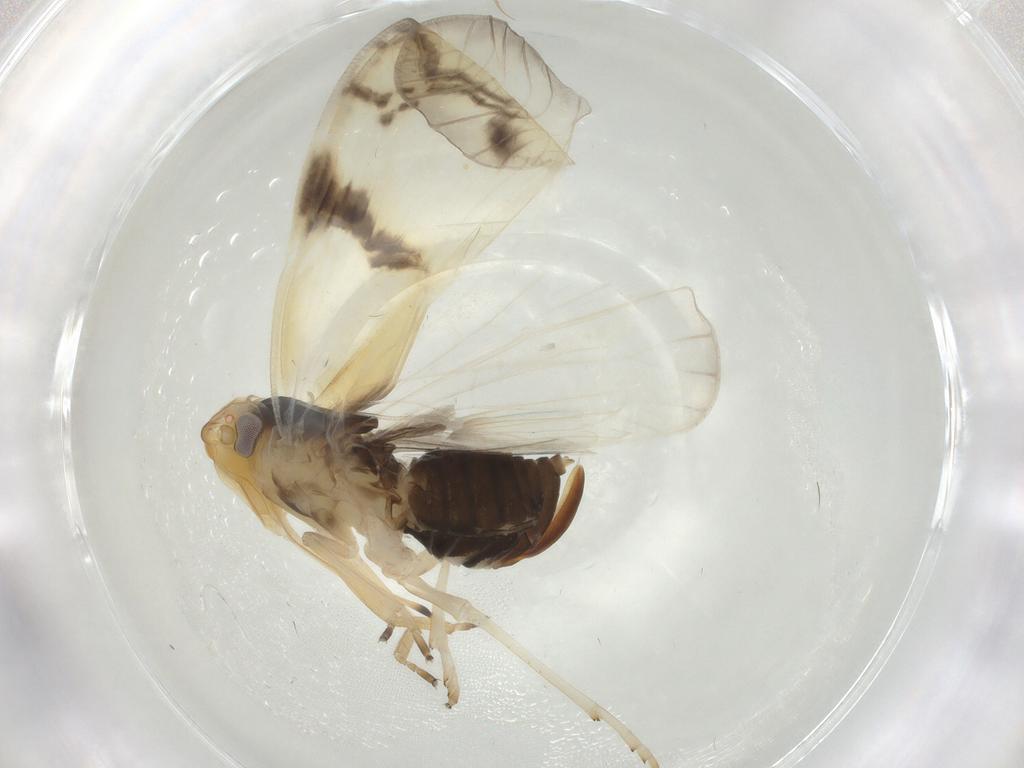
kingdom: Animalia
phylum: Arthropoda
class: Insecta
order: Hemiptera
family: Cixiidae
